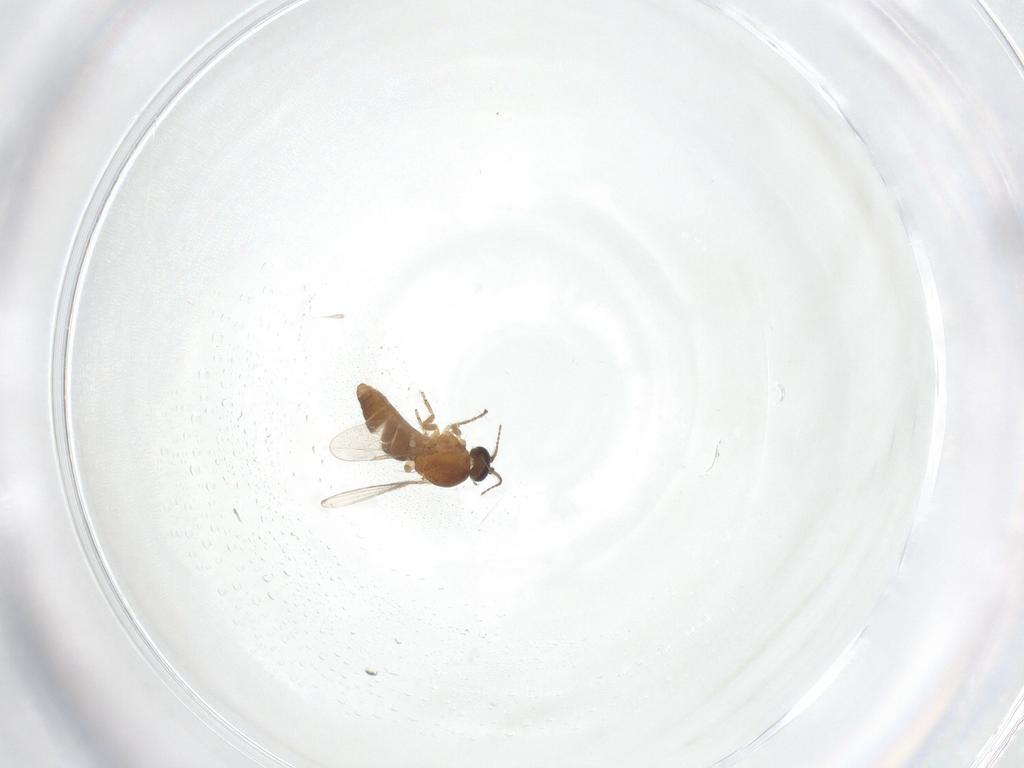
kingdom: Animalia
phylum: Arthropoda
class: Insecta
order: Diptera
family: Ceratopogonidae
